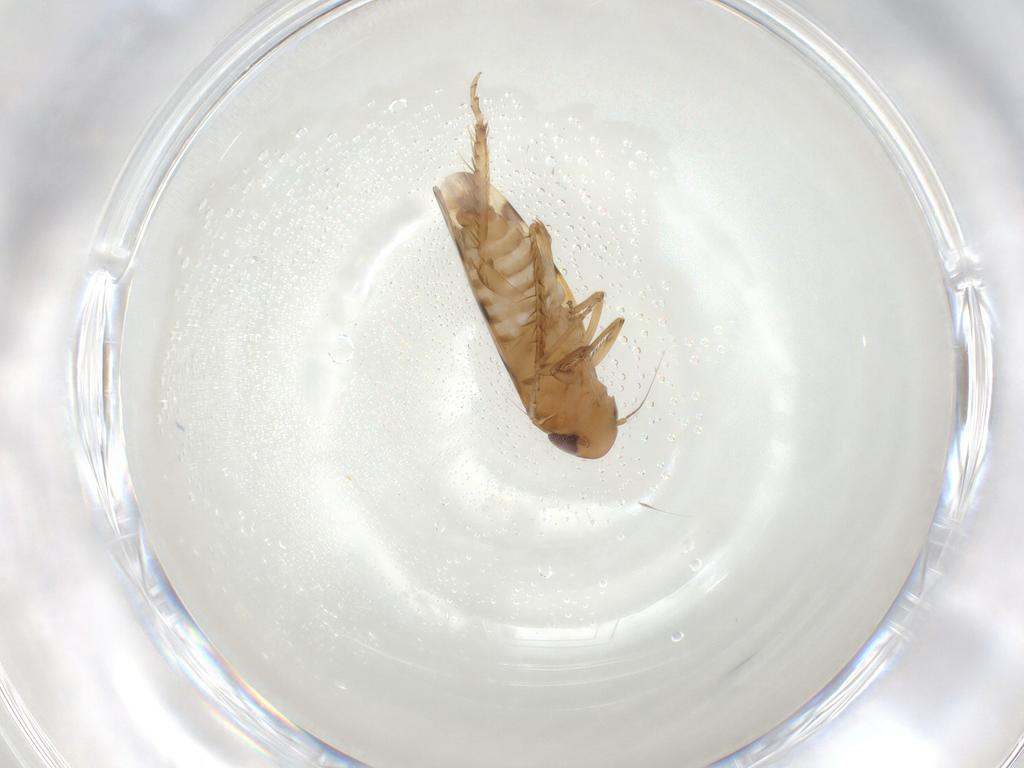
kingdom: Animalia
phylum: Arthropoda
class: Insecta
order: Hemiptera
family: Cicadellidae
